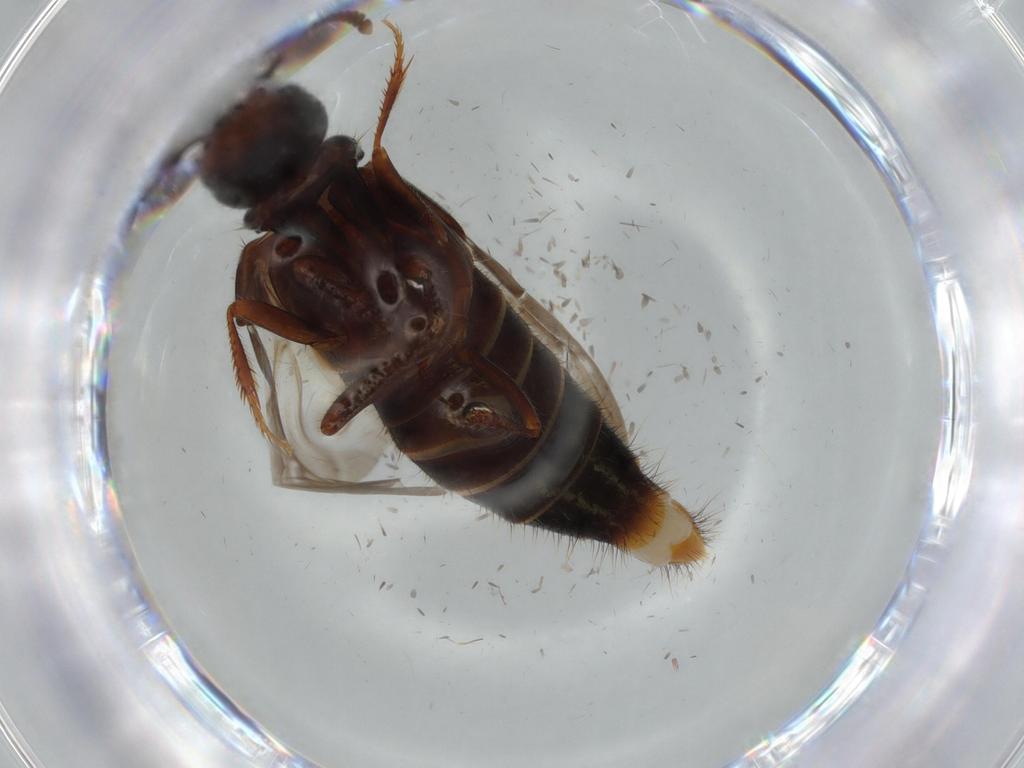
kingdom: Animalia
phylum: Arthropoda
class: Insecta
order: Coleoptera
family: Staphylinidae
